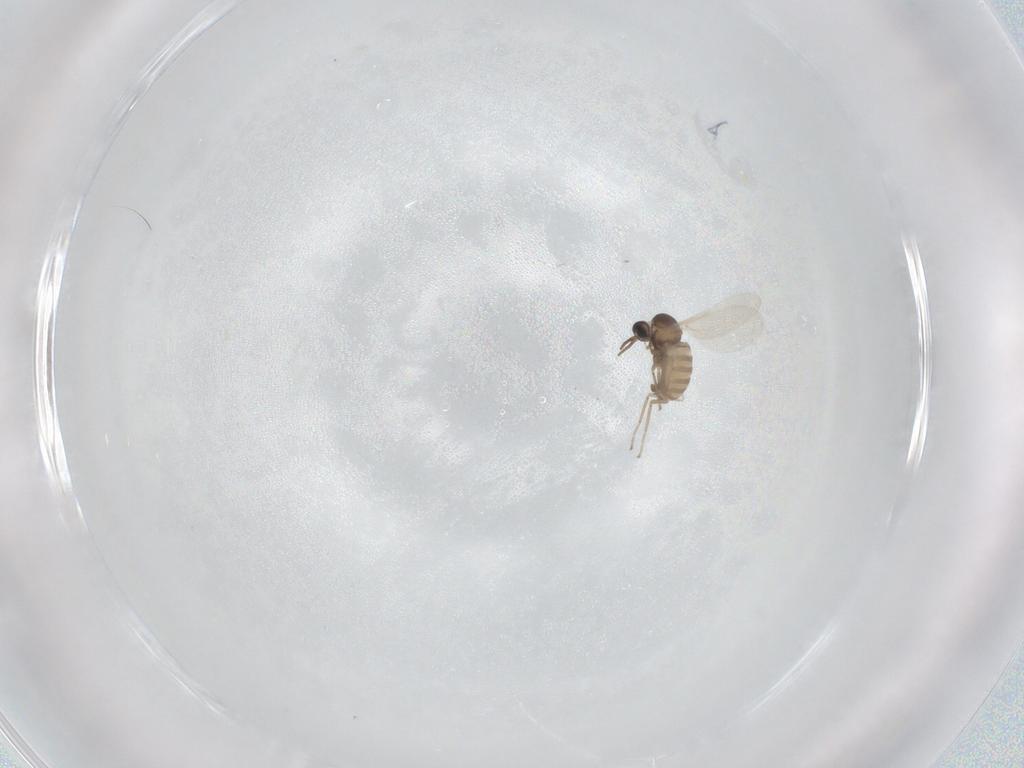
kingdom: Animalia
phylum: Arthropoda
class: Insecta
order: Diptera
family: Cecidomyiidae
